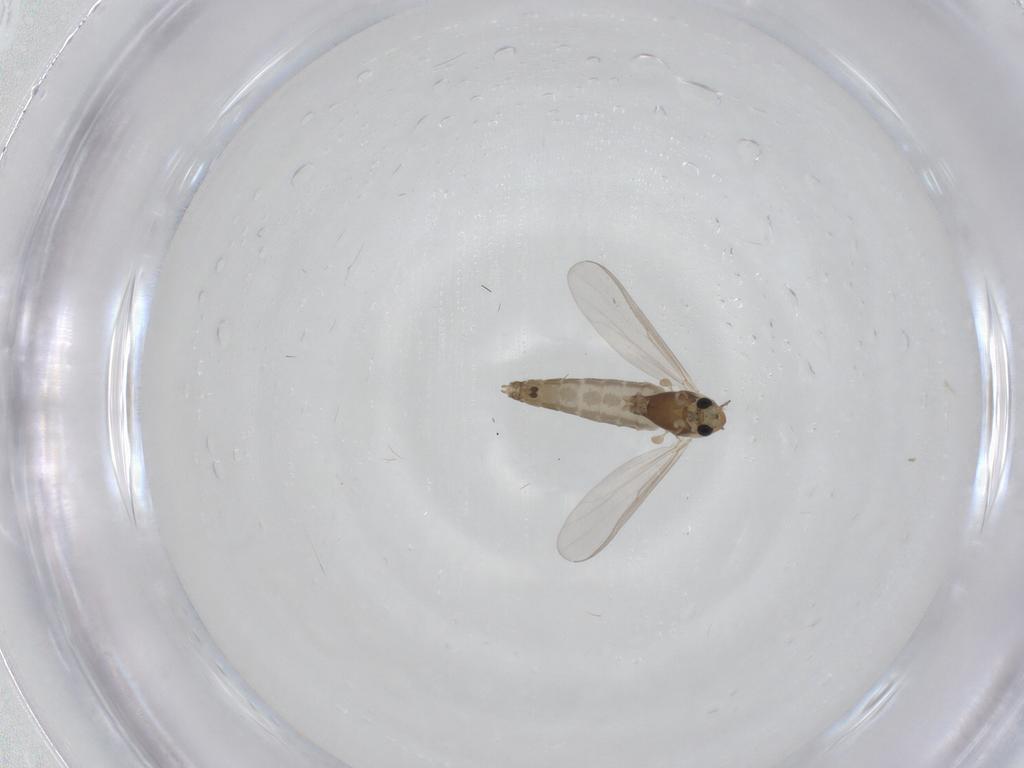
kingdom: Animalia
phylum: Arthropoda
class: Insecta
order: Diptera
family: Chironomidae
